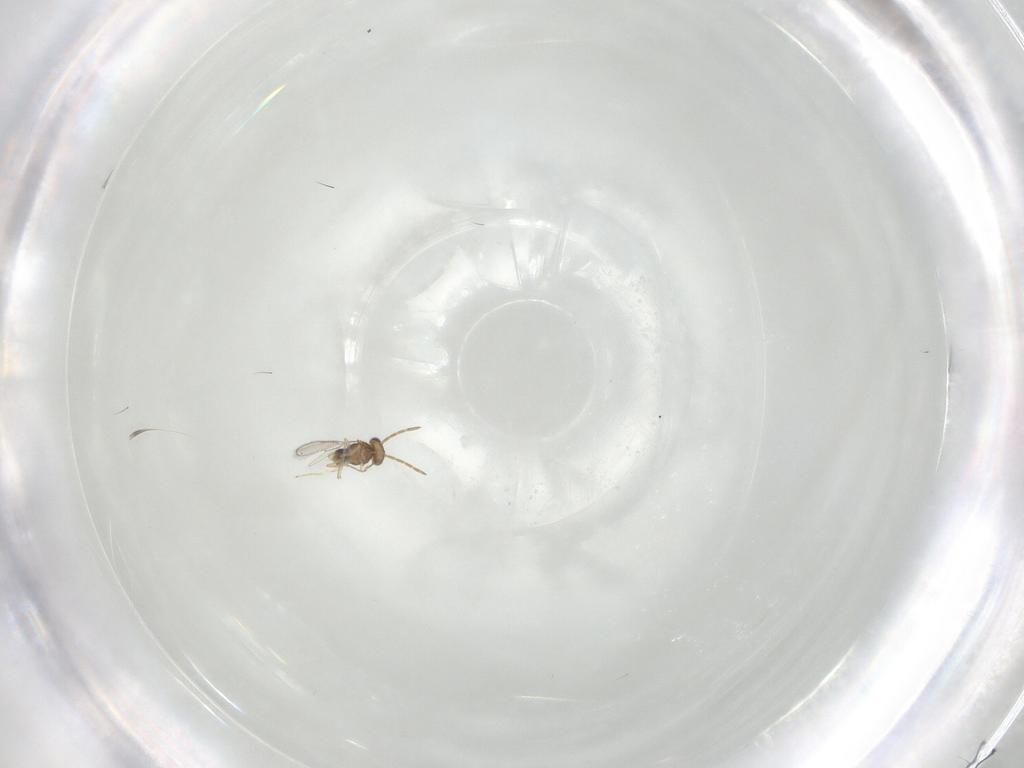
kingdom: Animalia
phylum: Arthropoda
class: Insecta
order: Hymenoptera
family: Aphelinidae
